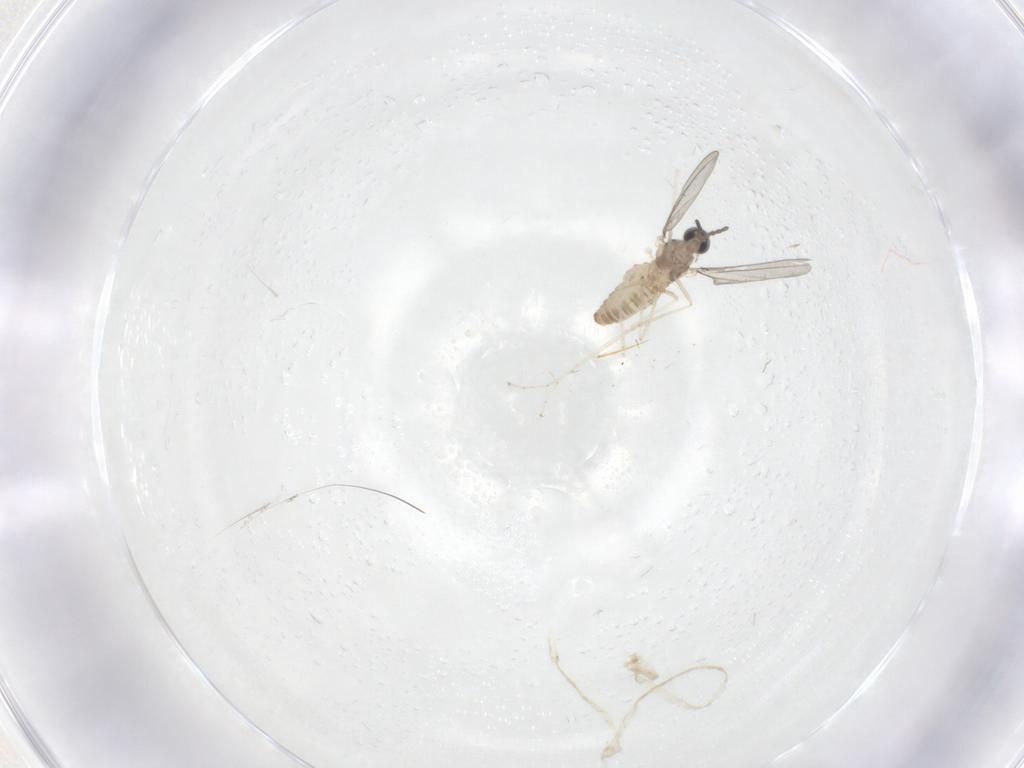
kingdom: Animalia
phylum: Arthropoda
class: Insecta
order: Diptera
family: Cecidomyiidae
